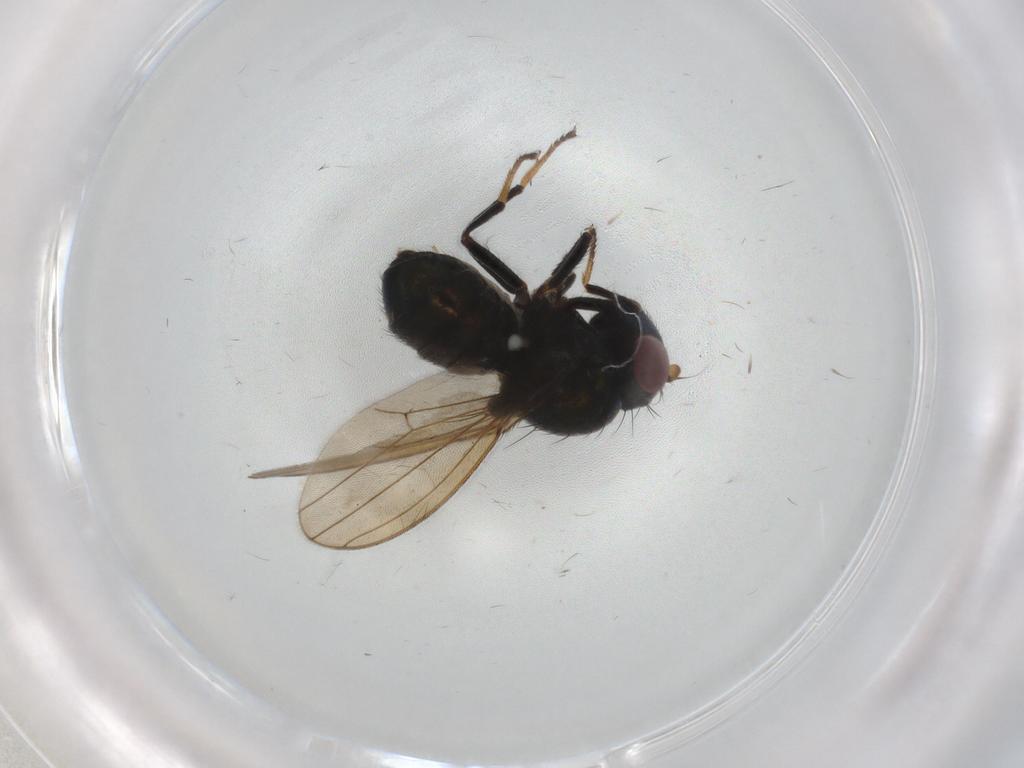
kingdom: Animalia
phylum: Arthropoda
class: Insecta
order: Diptera
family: Ephydridae
